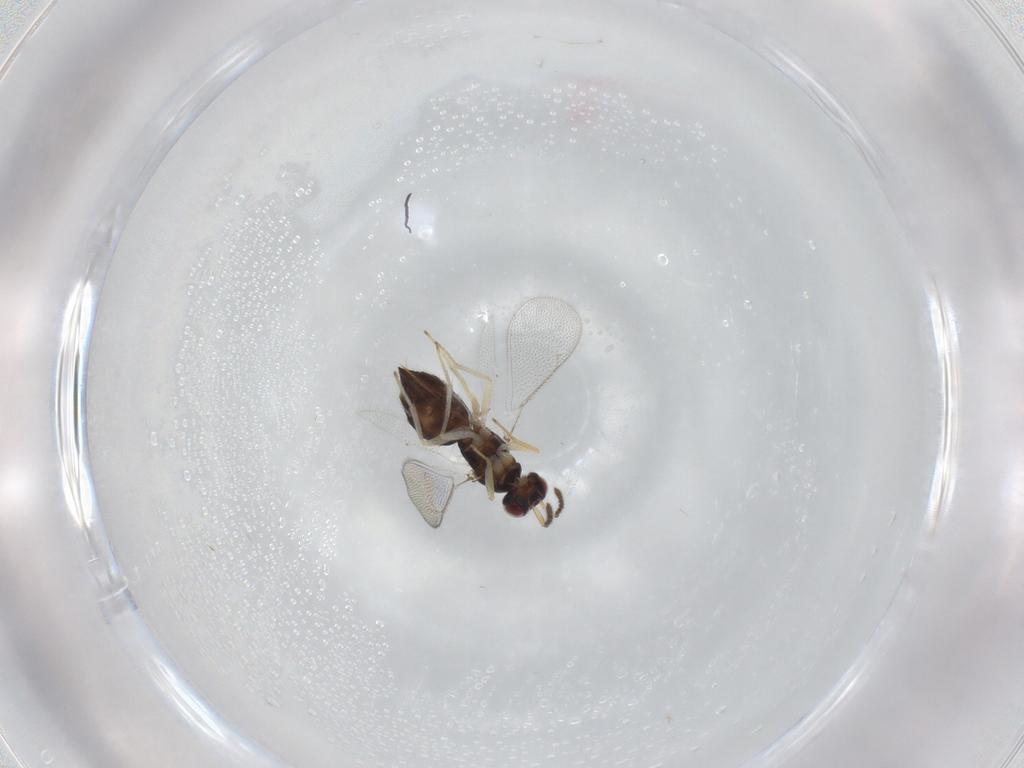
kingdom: Animalia
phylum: Arthropoda
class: Insecta
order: Hymenoptera
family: Eulophidae
